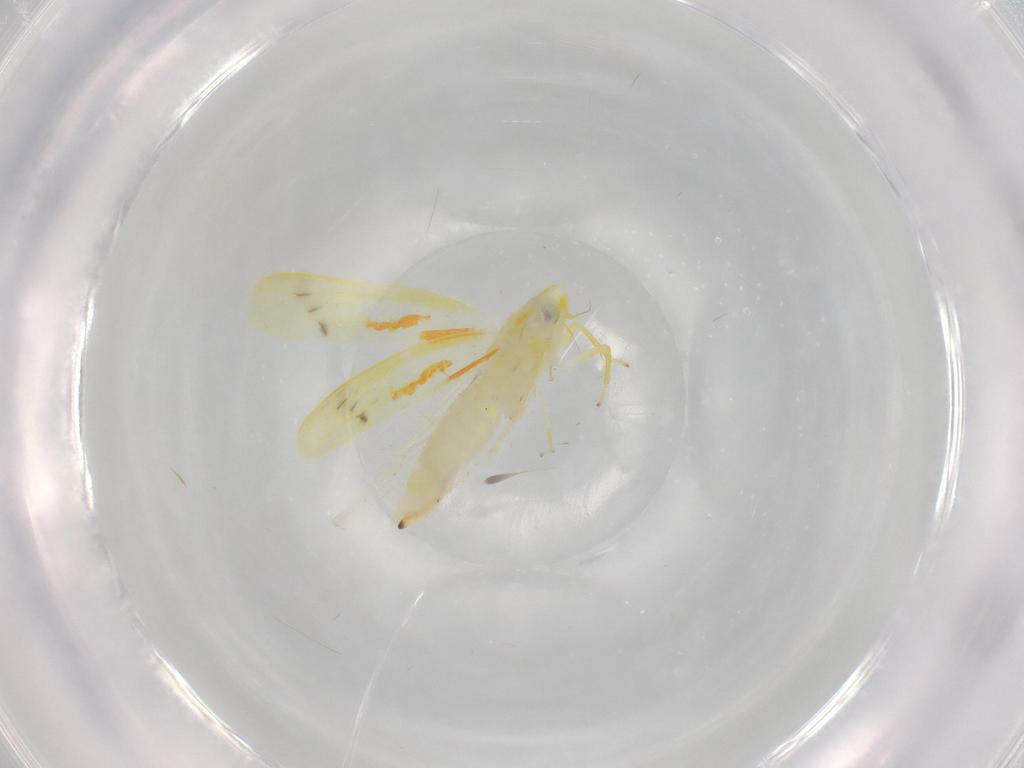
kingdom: Animalia
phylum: Arthropoda
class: Insecta
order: Hemiptera
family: Cicadellidae
